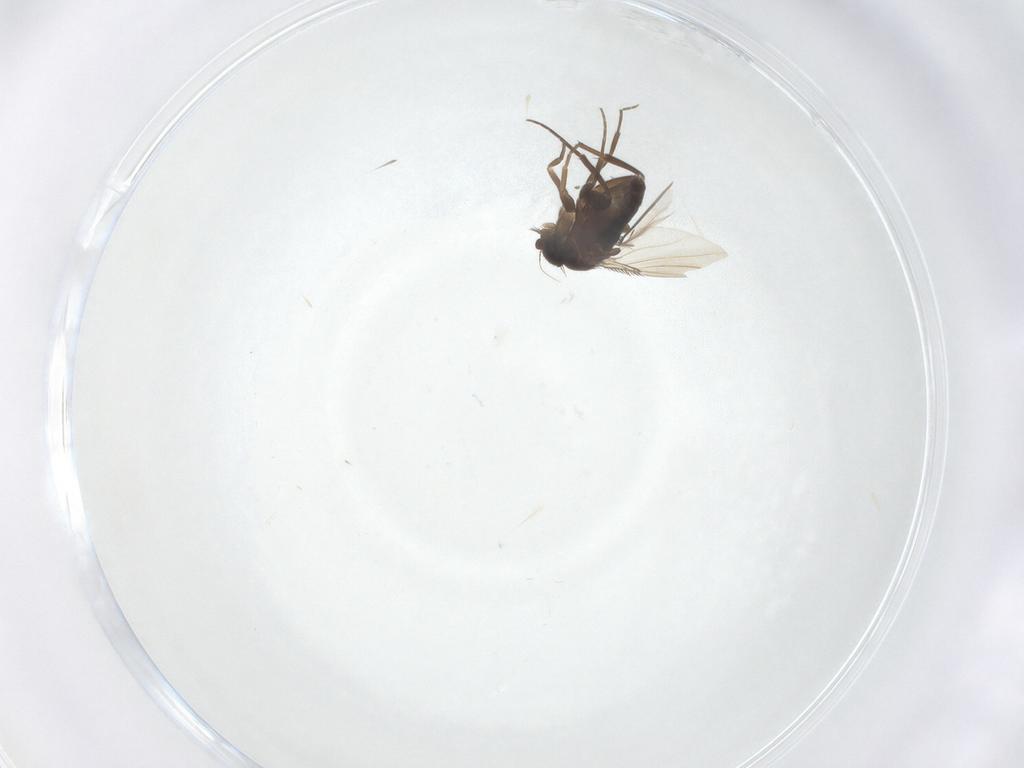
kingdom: Animalia
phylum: Arthropoda
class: Insecta
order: Diptera
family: Phoridae
